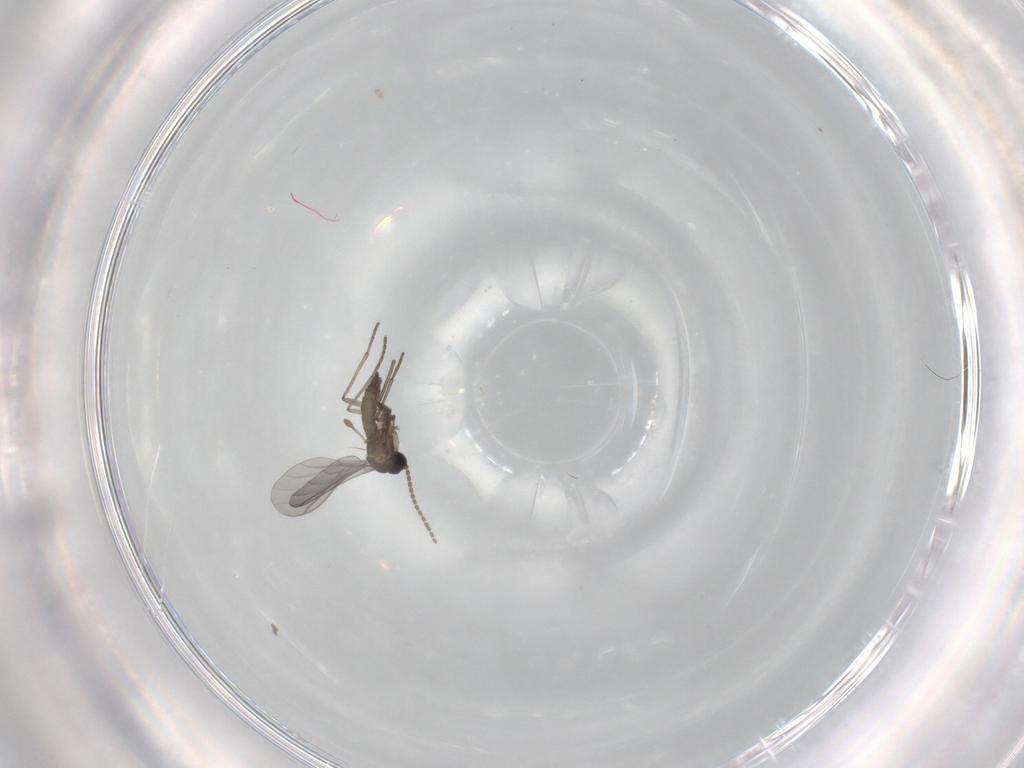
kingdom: Animalia
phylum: Arthropoda
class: Insecta
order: Diptera
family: Sciaridae
